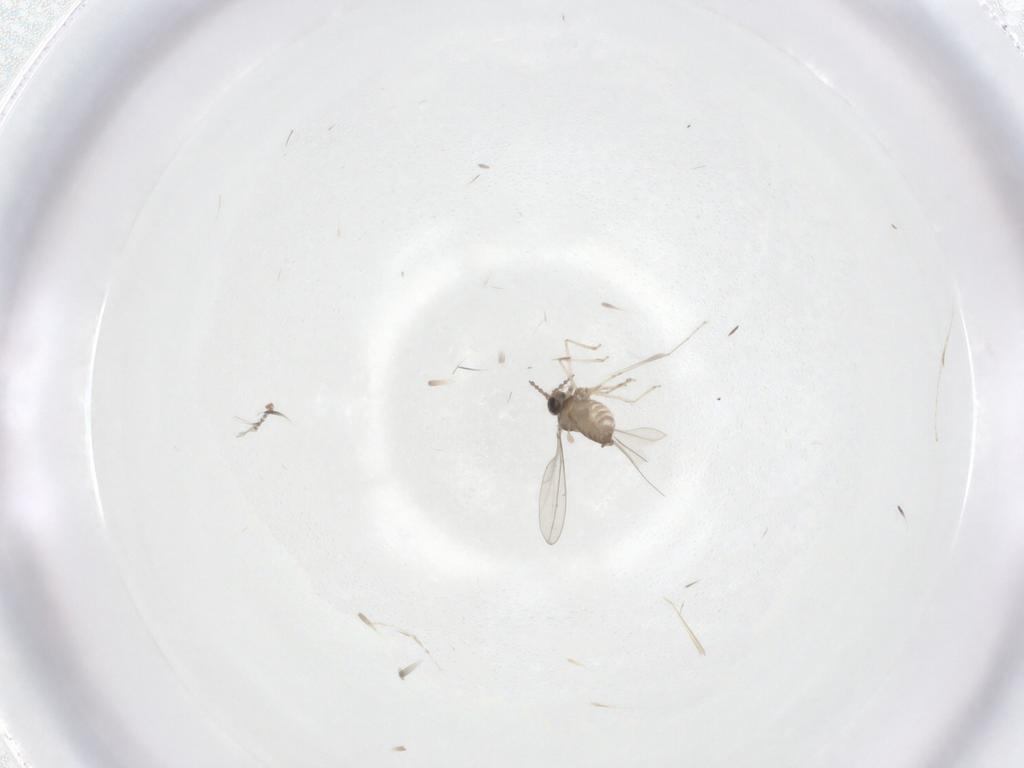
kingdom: Animalia
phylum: Arthropoda
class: Insecta
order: Diptera
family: Cecidomyiidae
